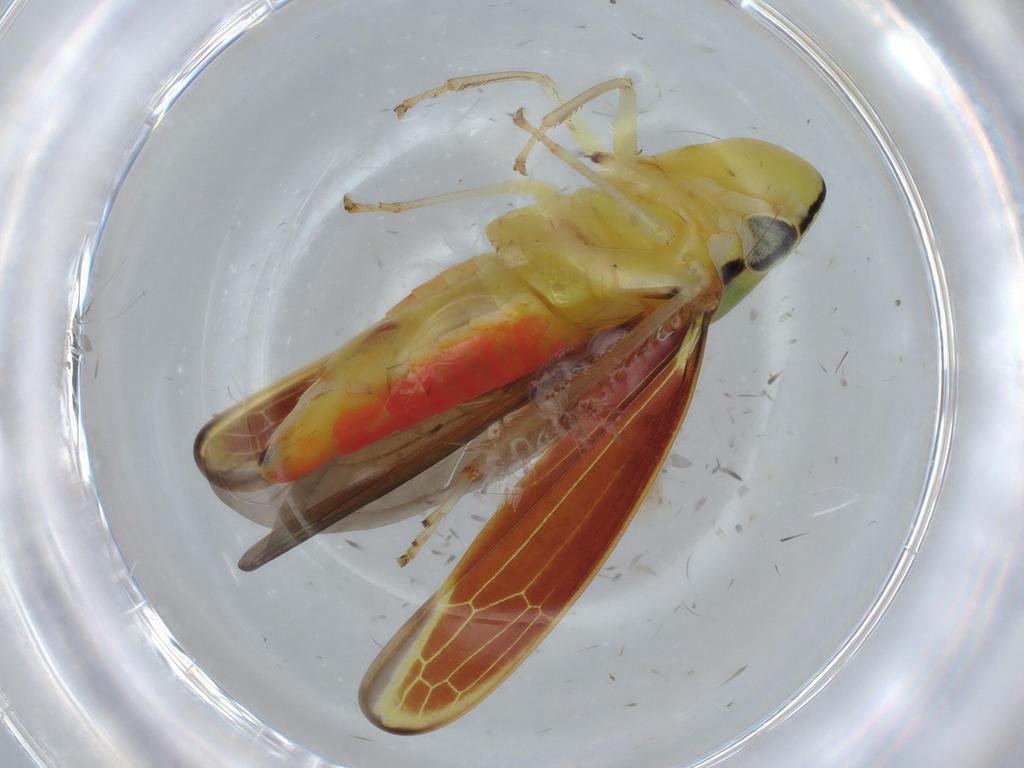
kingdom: Animalia
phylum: Arthropoda
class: Insecta
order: Hemiptera
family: Cicadellidae
